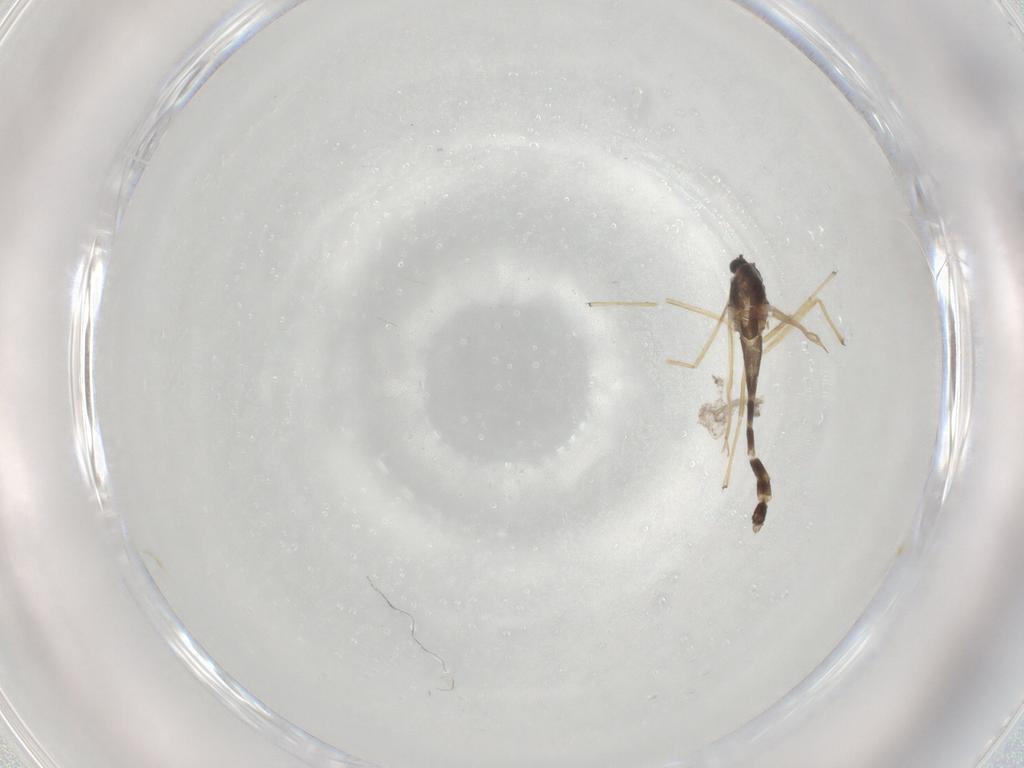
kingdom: Animalia
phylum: Arthropoda
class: Insecta
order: Diptera
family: Chironomidae
